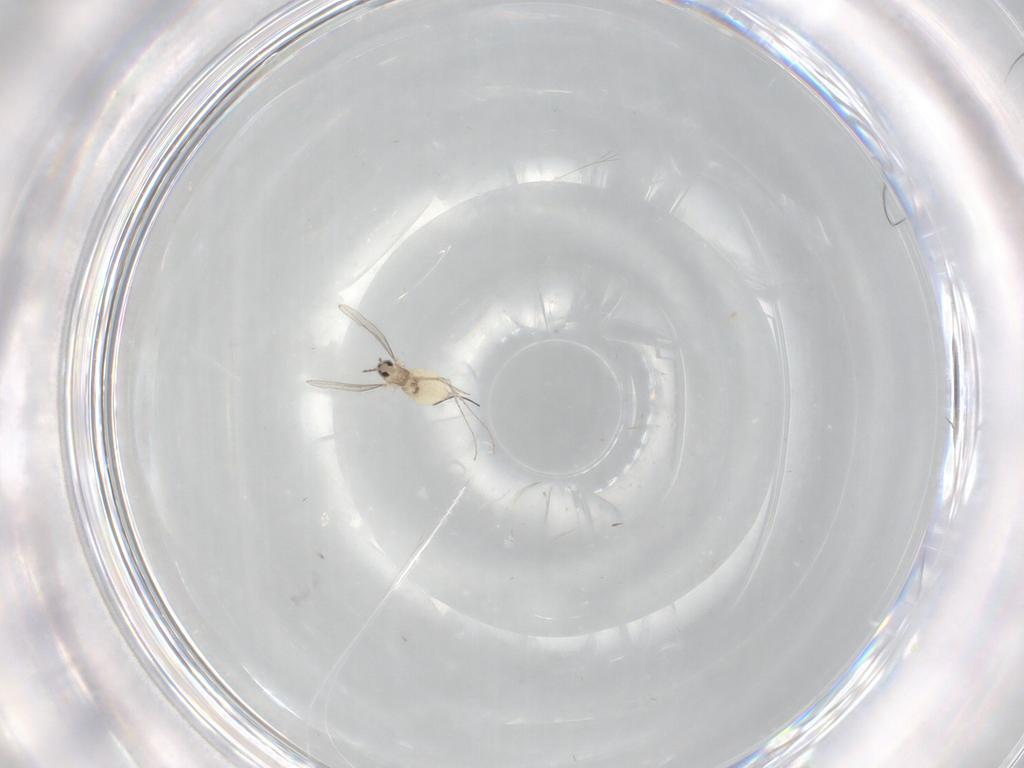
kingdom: Animalia
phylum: Arthropoda
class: Insecta
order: Diptera
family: Cecidomyiidae
